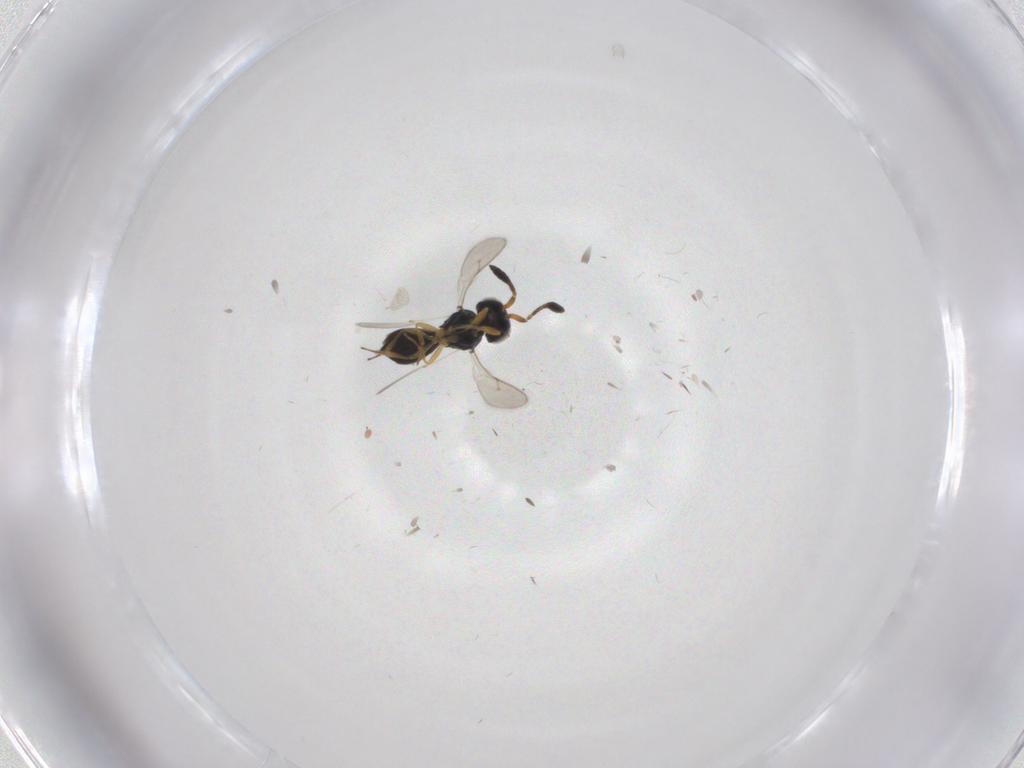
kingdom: Animalia
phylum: Arthropoda
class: Insecta
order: Hymenoptera
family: Scelionidae
